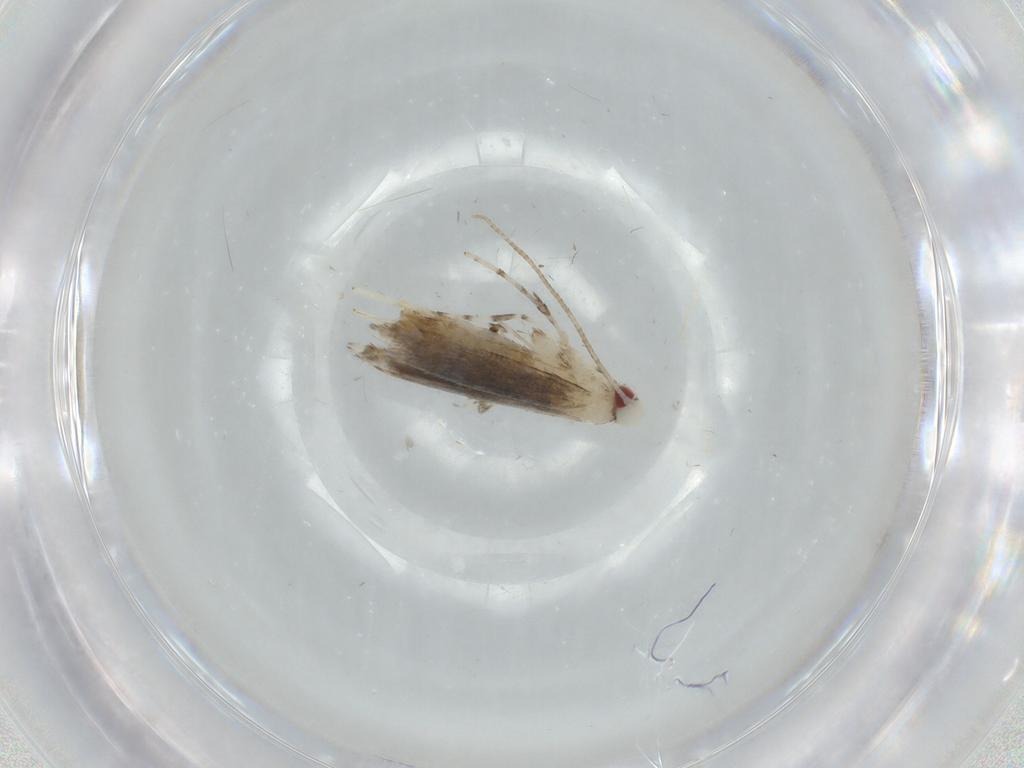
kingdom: Animalia
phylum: Arthropoda
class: Insecta
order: Lepidoptera
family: Gracillariidae
